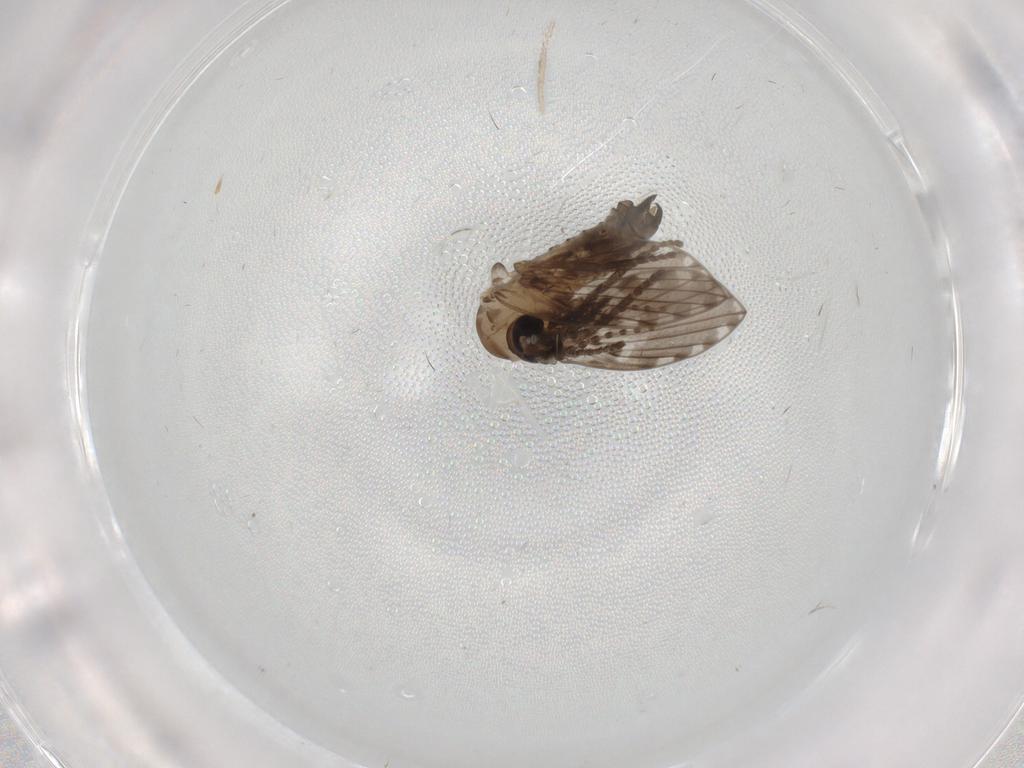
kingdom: Animalia
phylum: Arthropoda
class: Insecta
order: Diptera
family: Psychodidae
